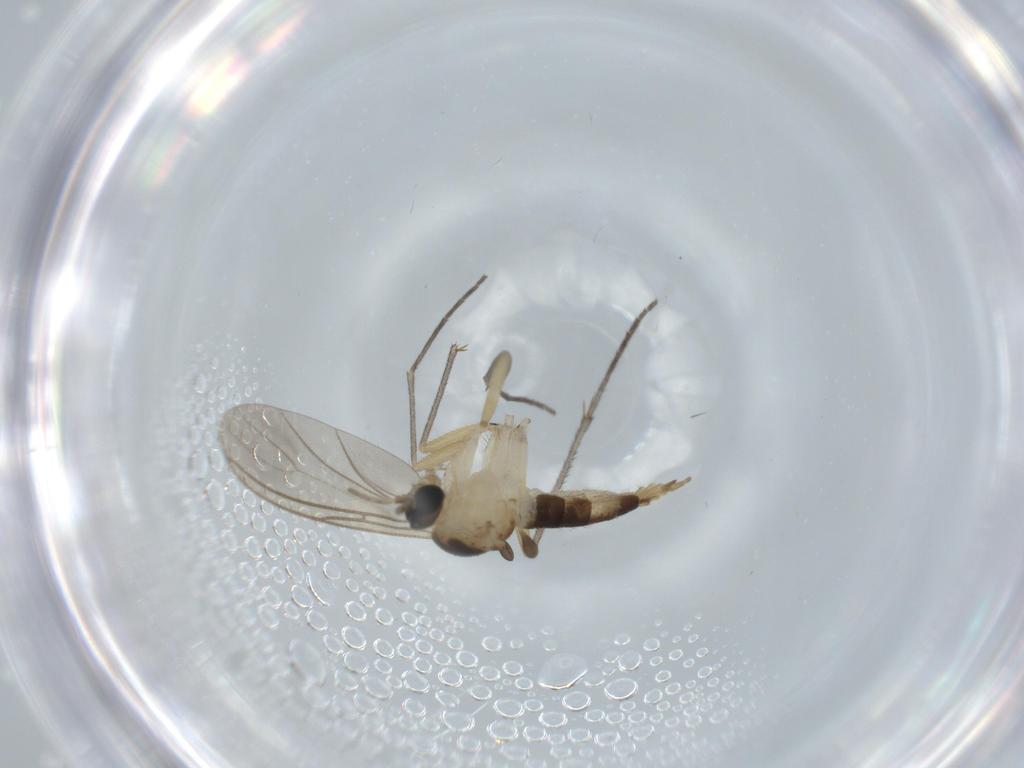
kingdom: Animalia
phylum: Arthropoda
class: Insecta
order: Diptera
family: Sciaridae
